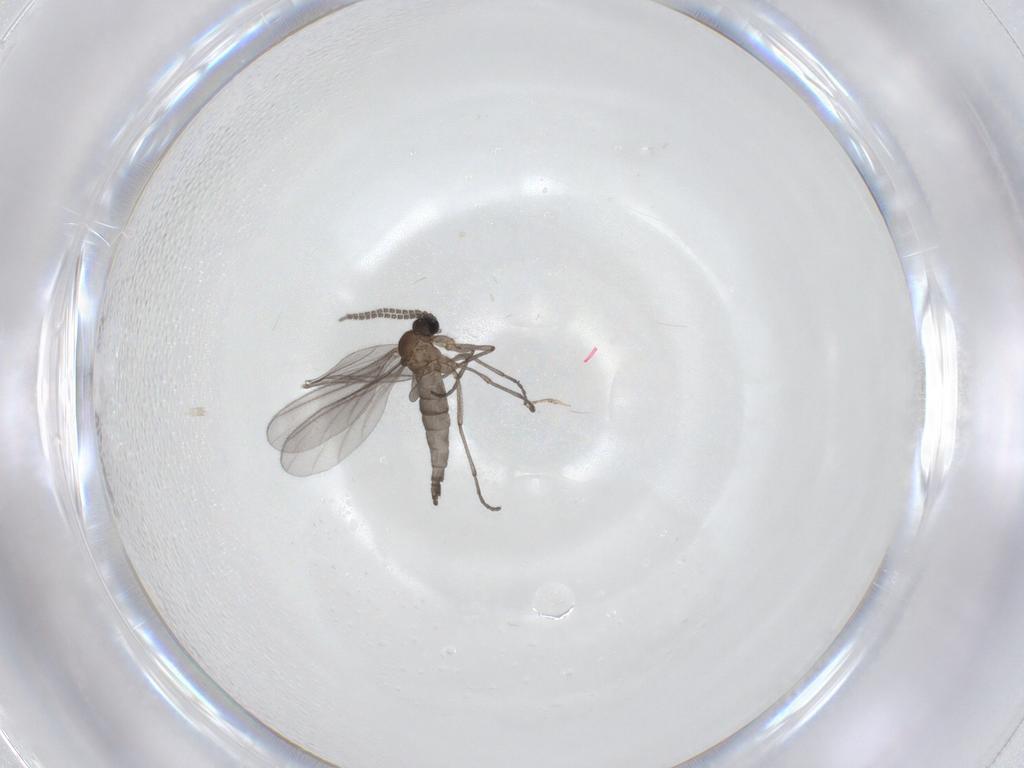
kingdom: Animalia
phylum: Arthropoda
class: Insecta
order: Diptera
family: Sciaridae
